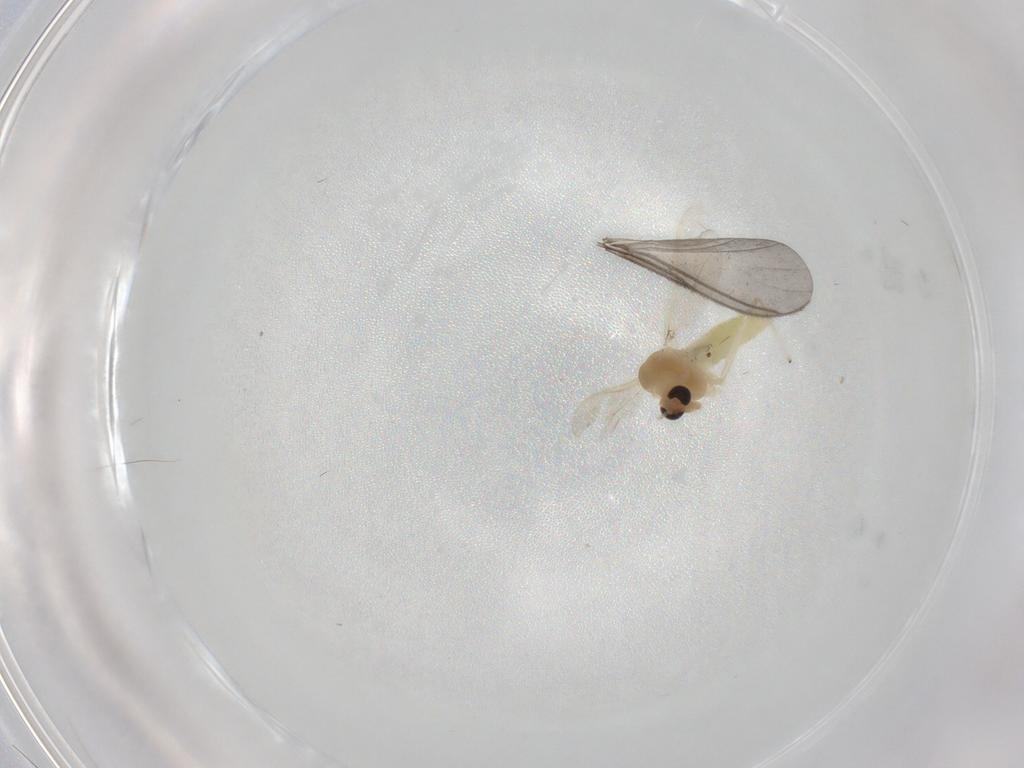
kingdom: Animalia
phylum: Arthropoda
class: Insecta
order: Diptera
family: Chironomidae
